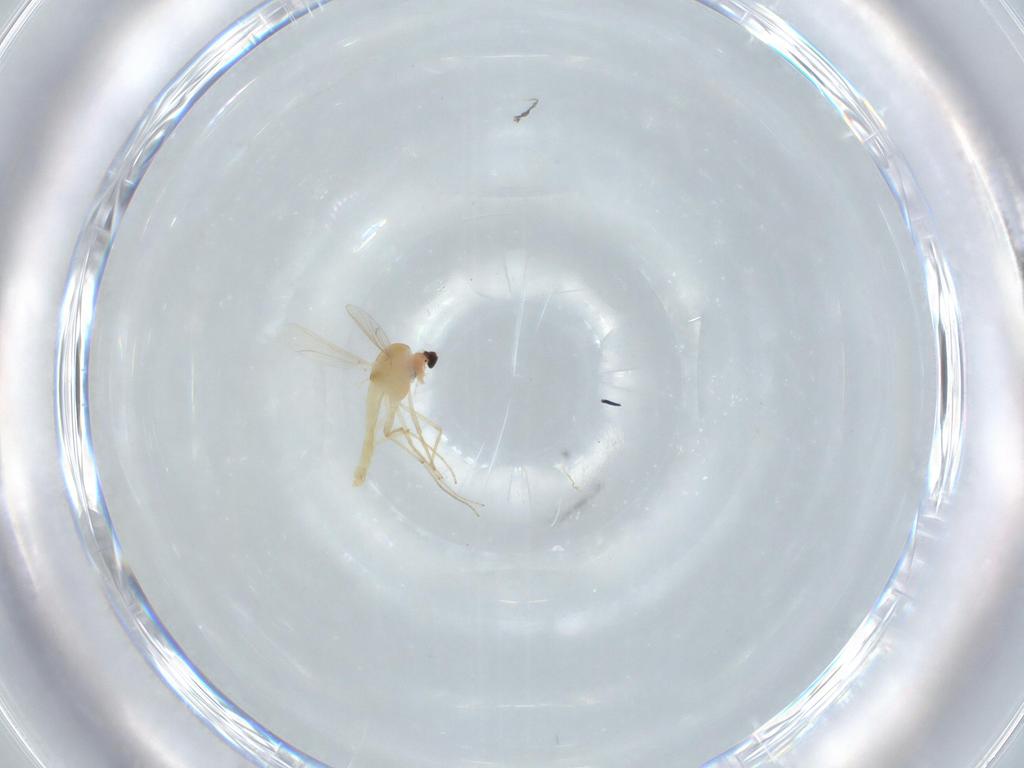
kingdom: Animalia
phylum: Arthropoda
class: Insecta
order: Diptera
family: Chironomidae
